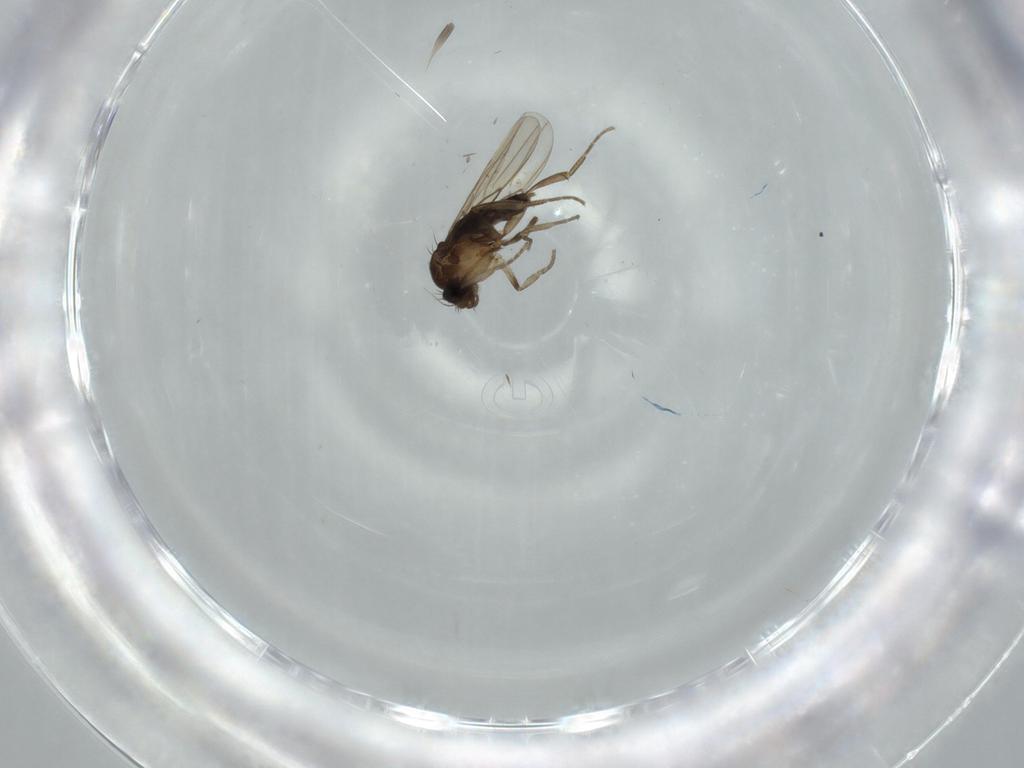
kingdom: Animalia
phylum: Arthropoda
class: Insecta
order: Diptera
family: Phoridae
